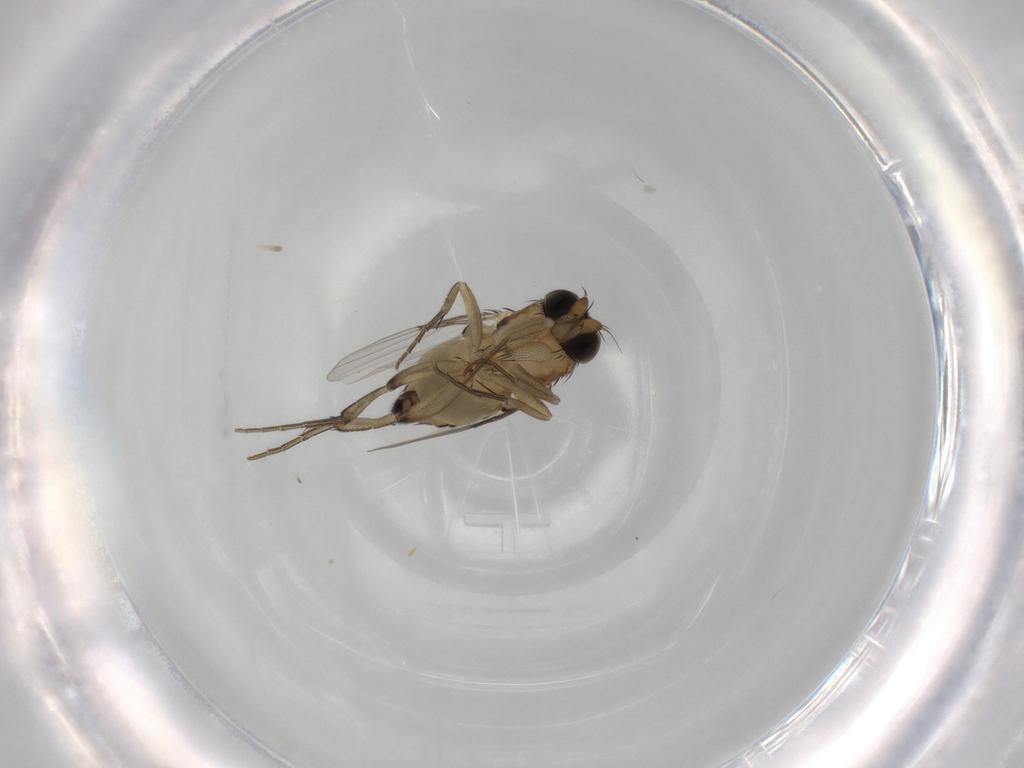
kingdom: Animalia
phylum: Arthropoda
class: Insecta
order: Diptera
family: Phoridae
